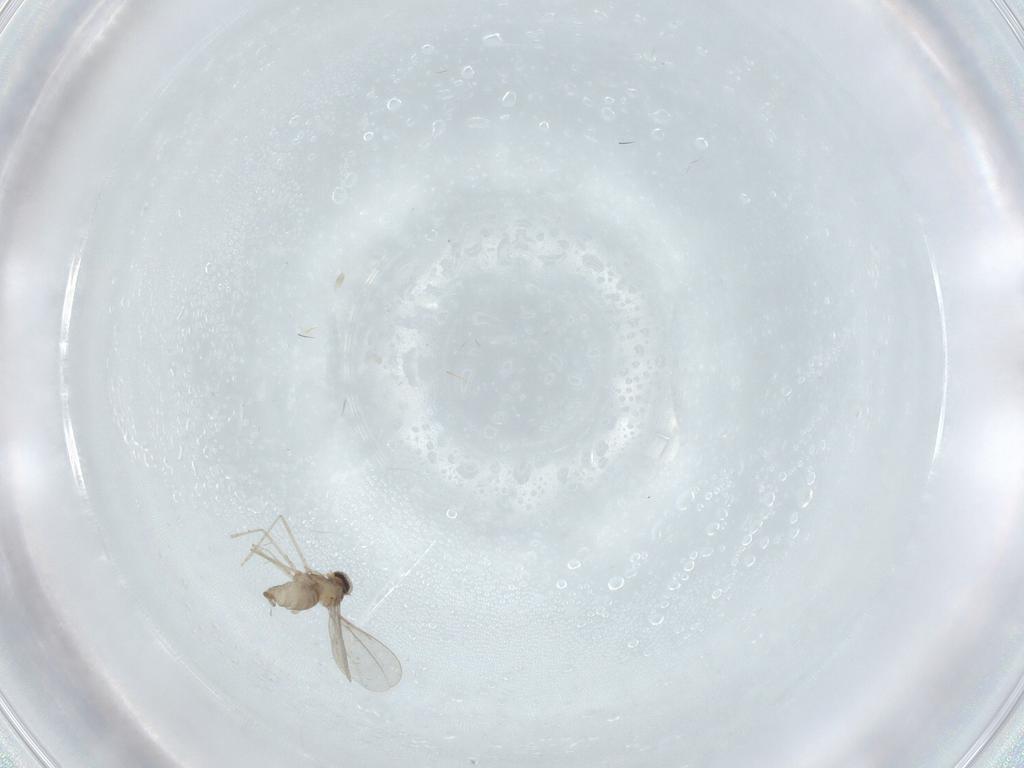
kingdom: Animalia
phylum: Arthropoda
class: Insecta
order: Diptera
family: Cecidomyiidae
